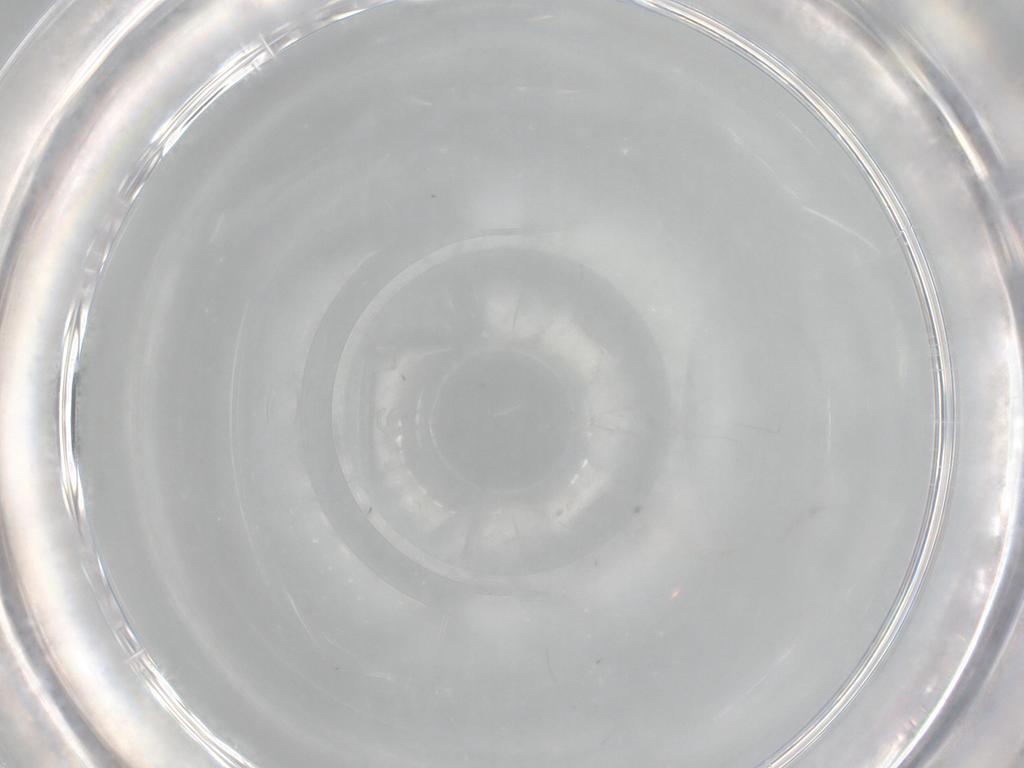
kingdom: Animalia
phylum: Arthropoda
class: Insecta
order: Hymenoptera
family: Scelionidae
